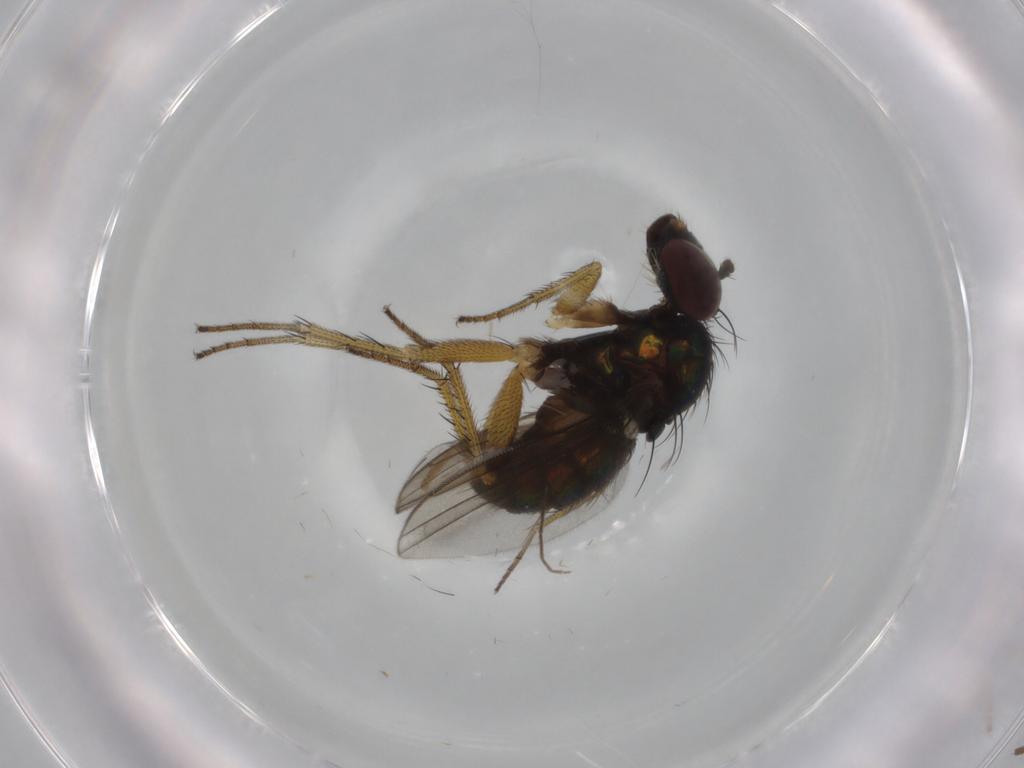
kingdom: Animalia
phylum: Arthropoda
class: Insecta
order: Diptera
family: Dolichopodidae
